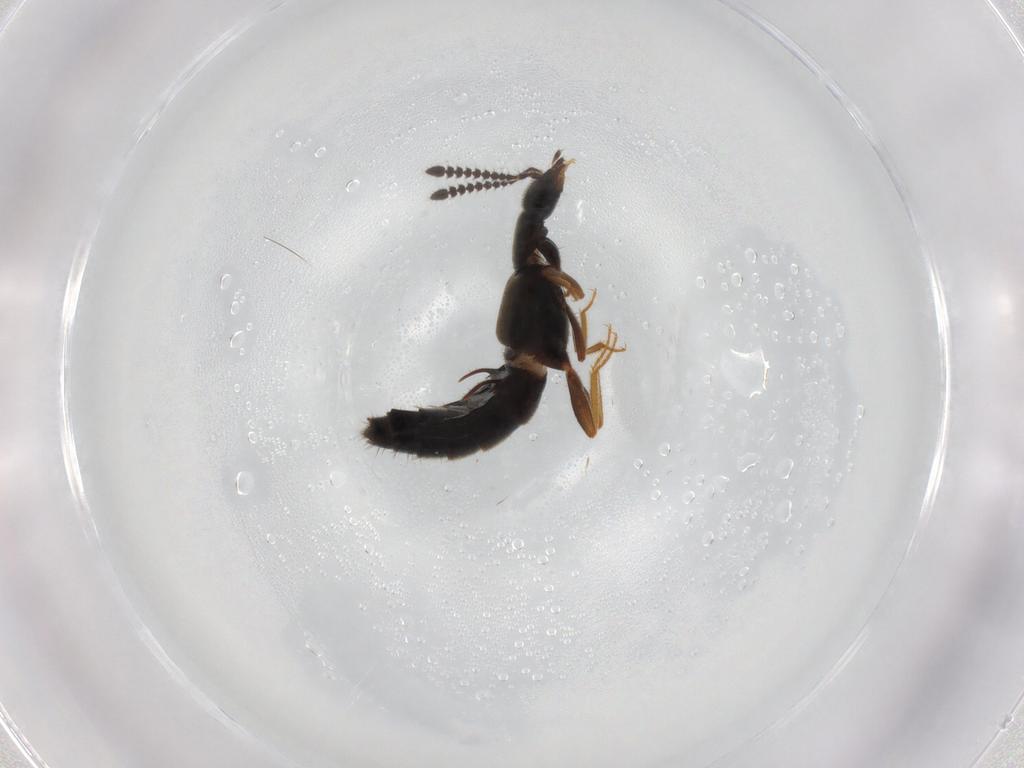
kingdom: Animalia
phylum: Arthropoda
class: Insecta
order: Coleoptera
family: Staphylinidae
